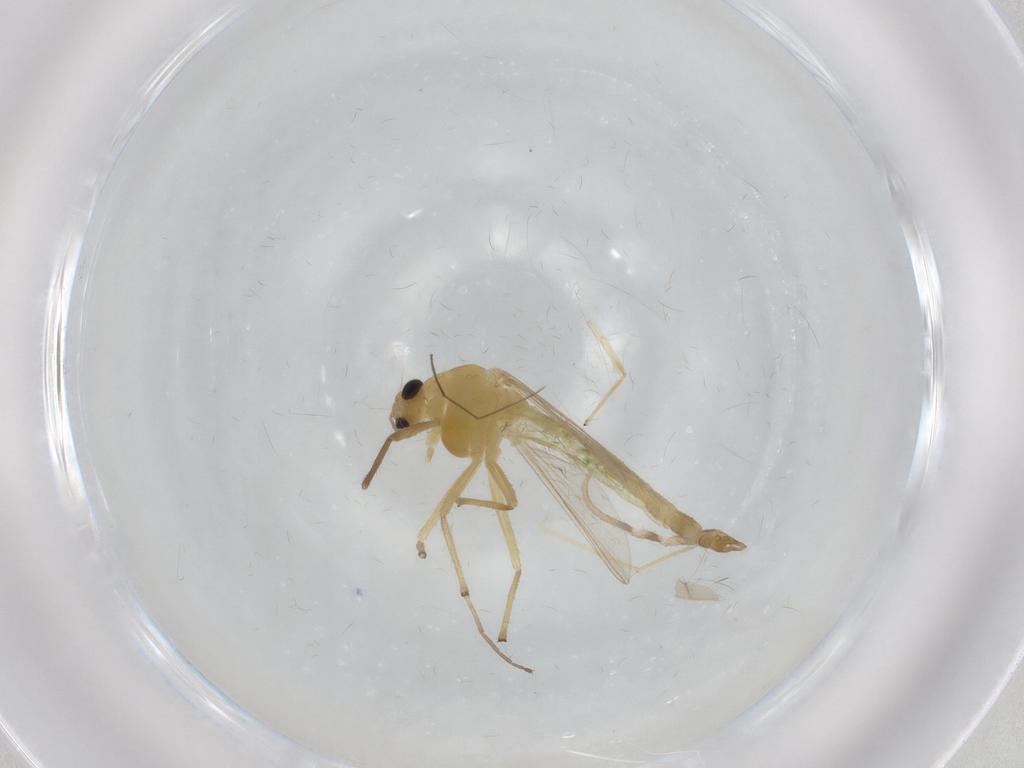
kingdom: Animalia
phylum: Arthropoda
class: Insecta
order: Diptera
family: Chironomidae
